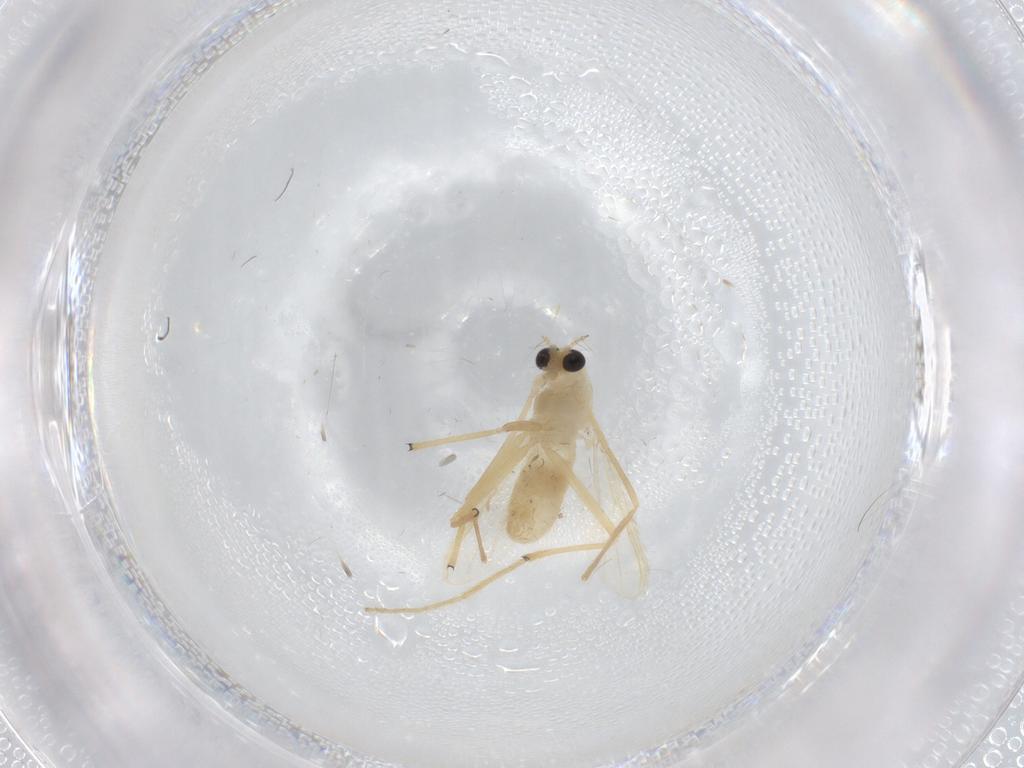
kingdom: Animalia
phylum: Arthropoda
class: Insecta
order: Diptera
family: Chironomidae
